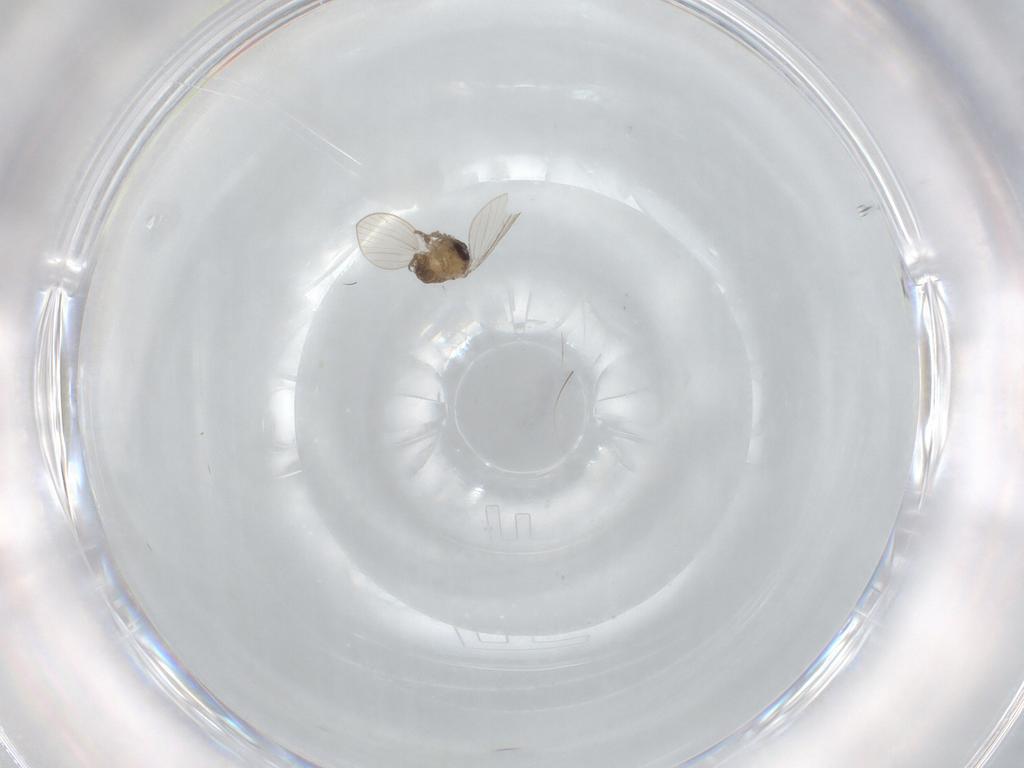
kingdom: Animalia
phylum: Arthropoda
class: Insecta
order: Diptera
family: Psychodidae
